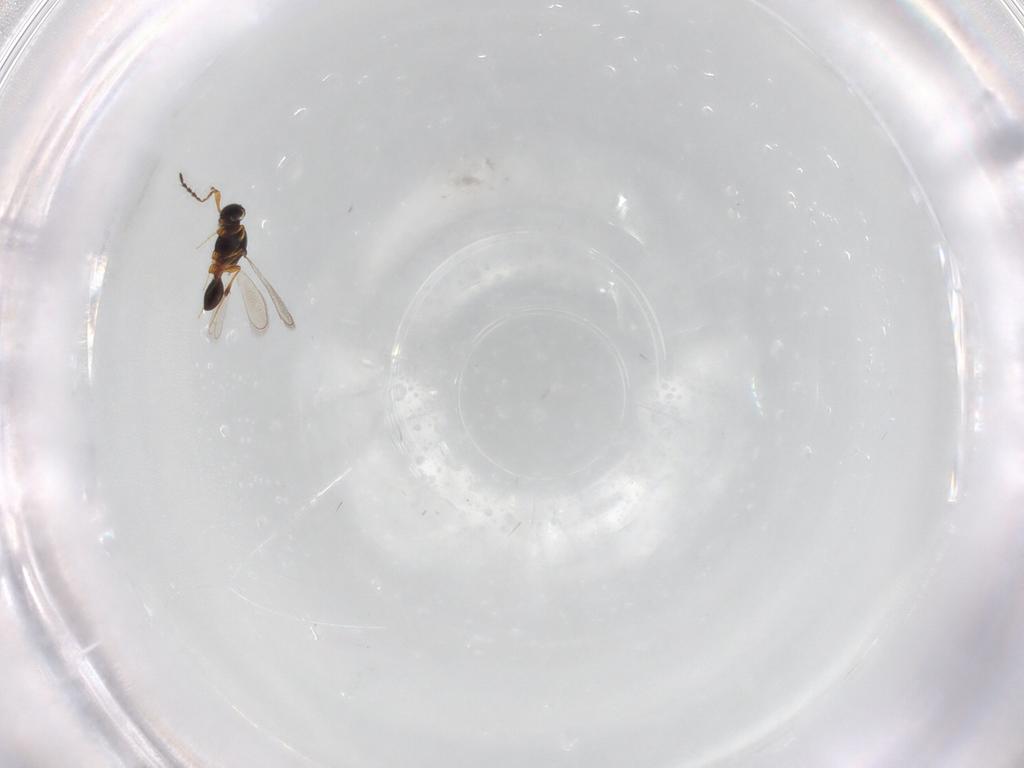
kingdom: Animalia
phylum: Arthropoda
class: Insecta
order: Hymenoptera
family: Platygastridae
